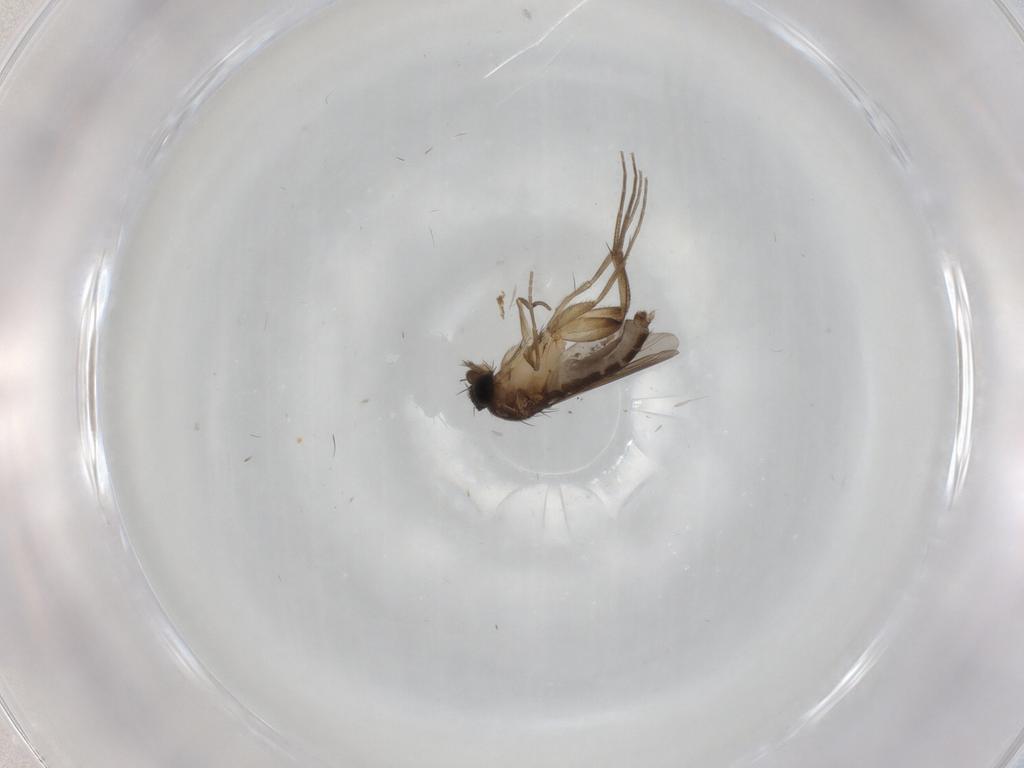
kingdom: Animalia
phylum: Arthropoda
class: Insecta
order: Diptera
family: Phoridae
